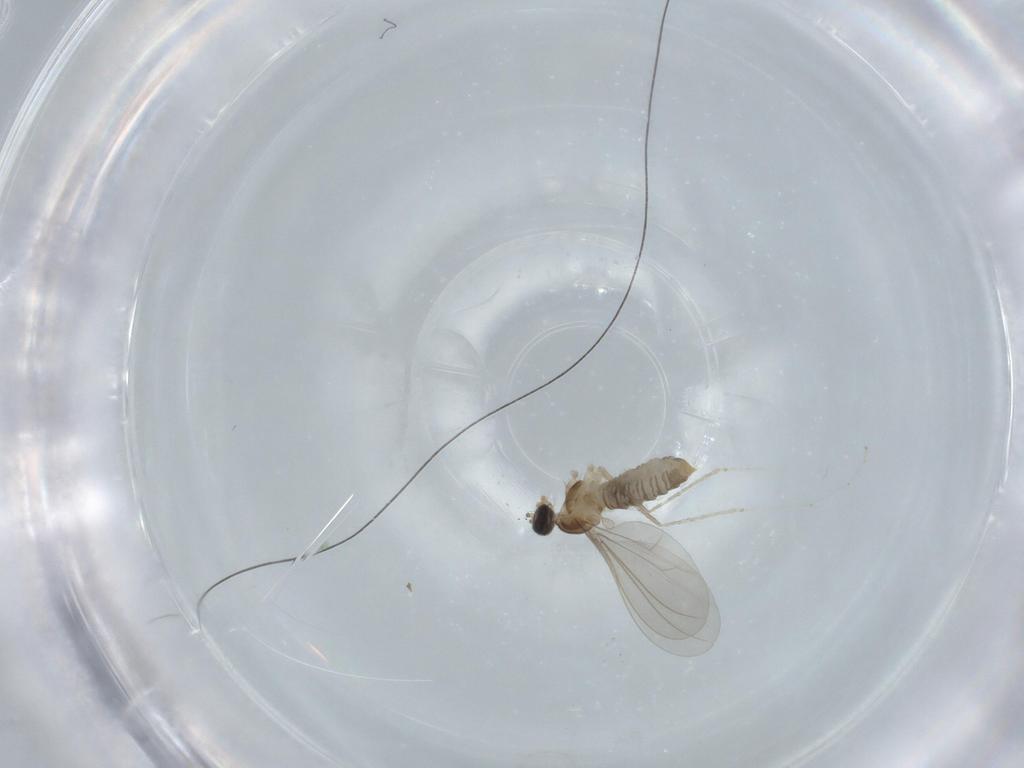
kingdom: Animalia
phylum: Arthropoda
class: Insecta
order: Diptera
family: Cecidomyiidae
